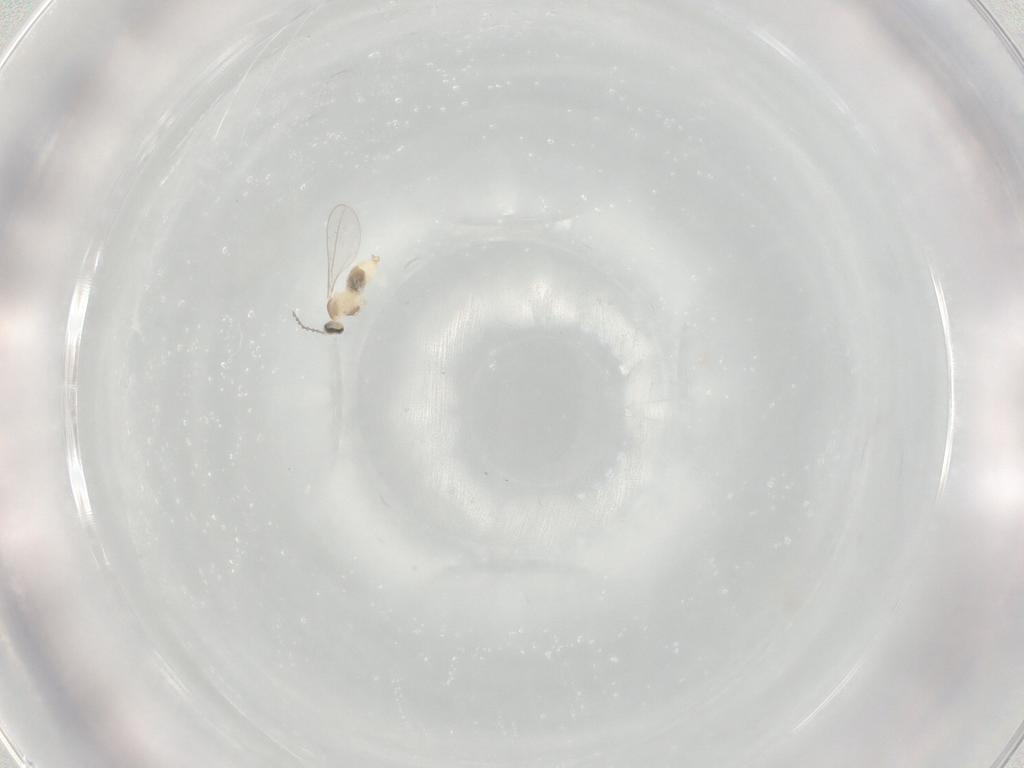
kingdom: Animalia
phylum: Arthropoda
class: Insecta
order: Diptera
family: Cecidomyiidae
